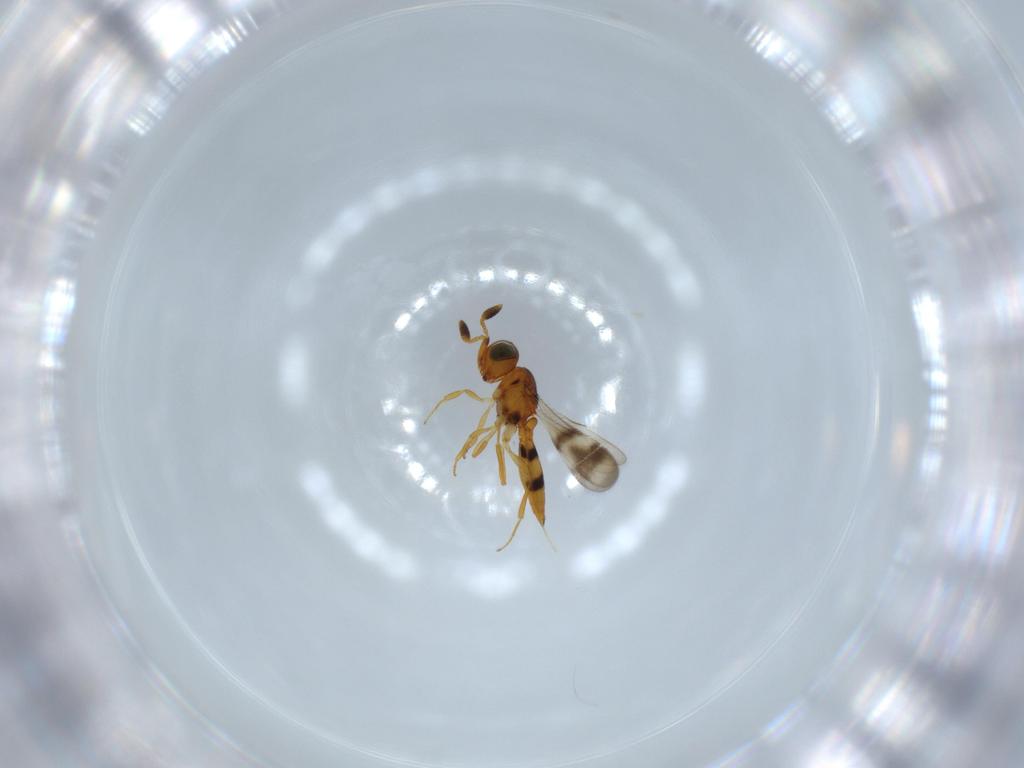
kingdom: Animalia
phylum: Arthropoda
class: Insecta
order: Hymenoptera
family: Scelionidae
